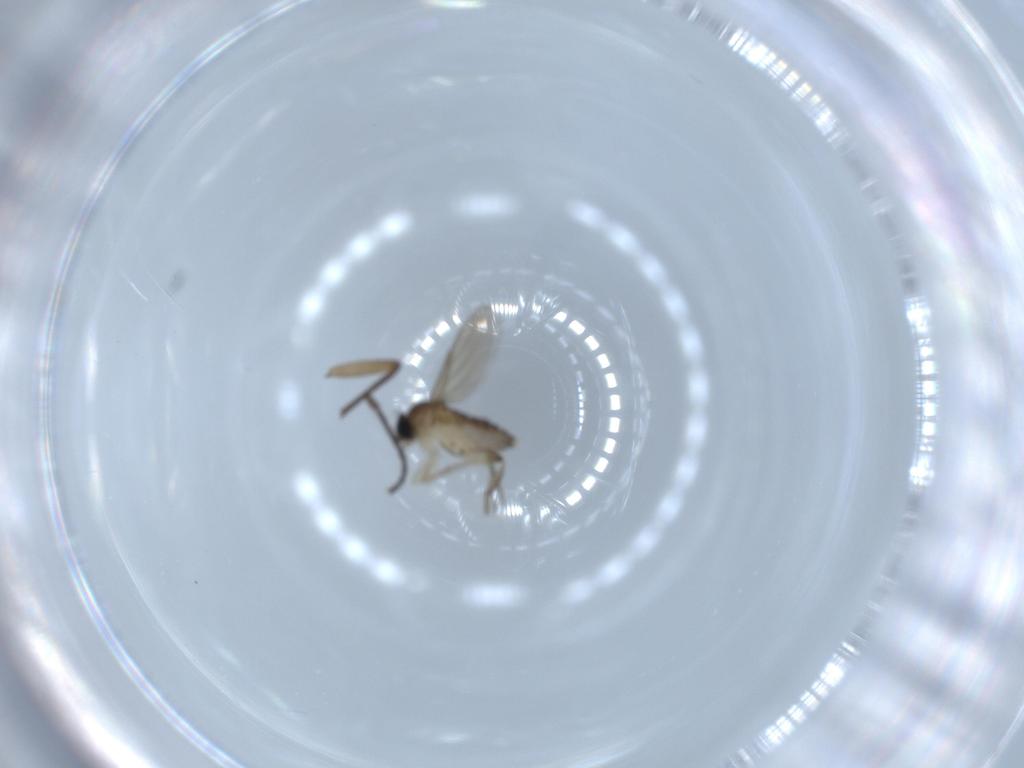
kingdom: Animalia
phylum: Arthropoda
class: Insecta
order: Diptera
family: Phoridae
